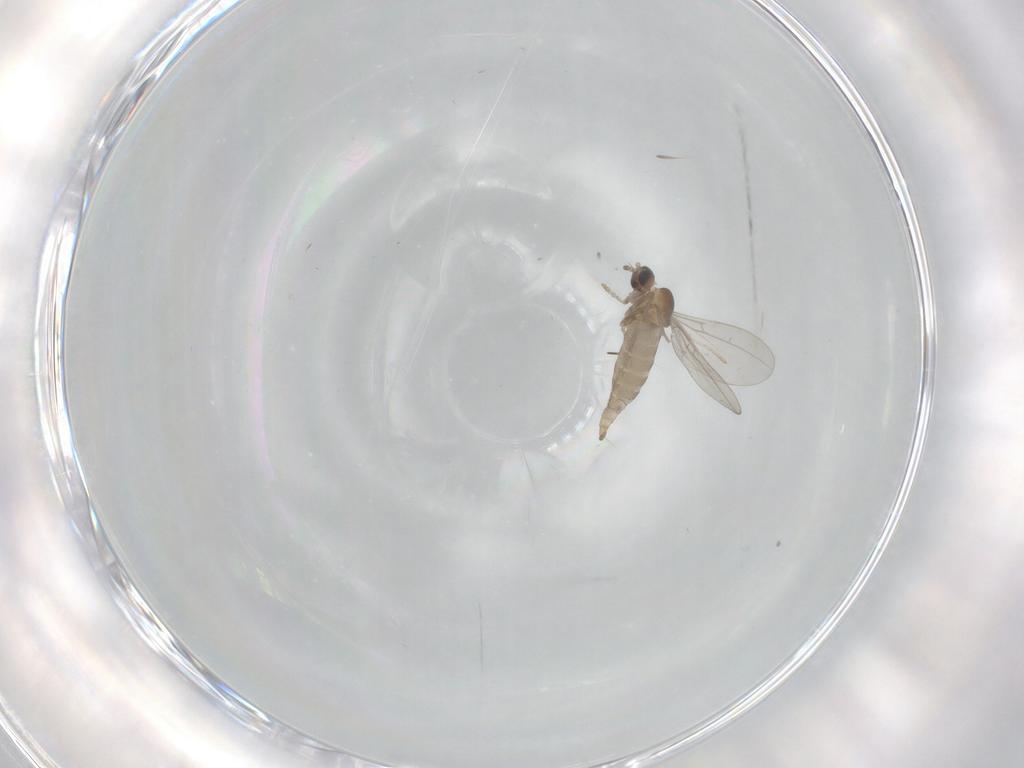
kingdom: Animalia
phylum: Arthropoda
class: Insecta
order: Diptera
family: Cecidomyiidae
